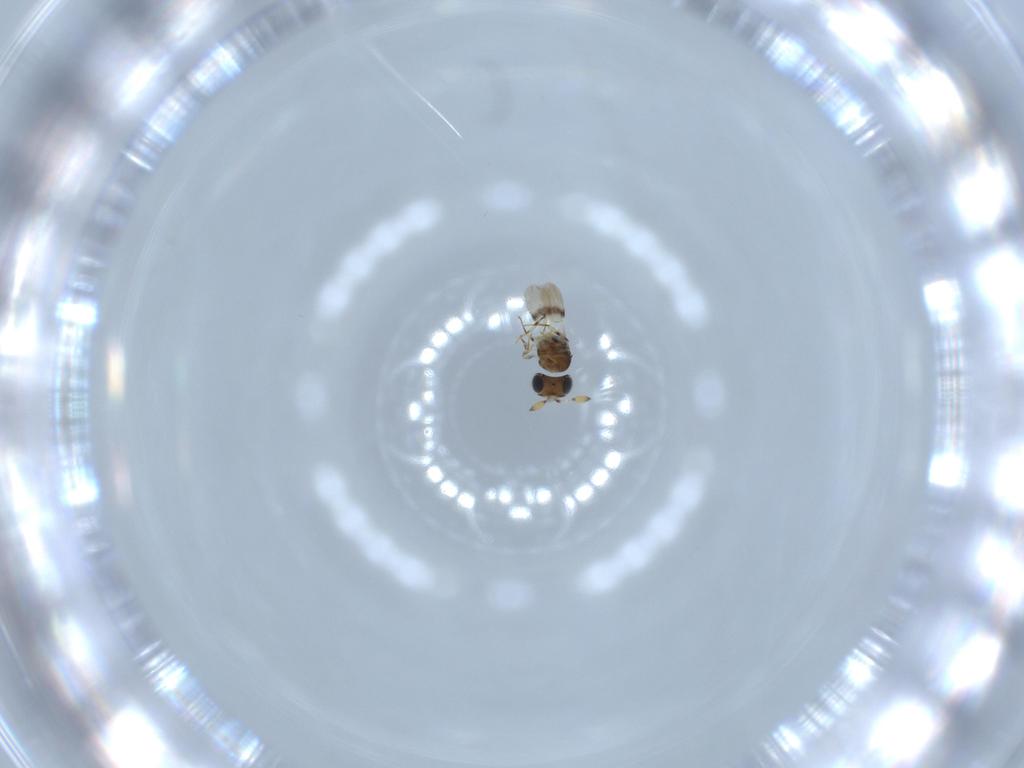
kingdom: Animalia
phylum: Arthropoda
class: Insecta
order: Hymenoptera
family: Scelionidae
